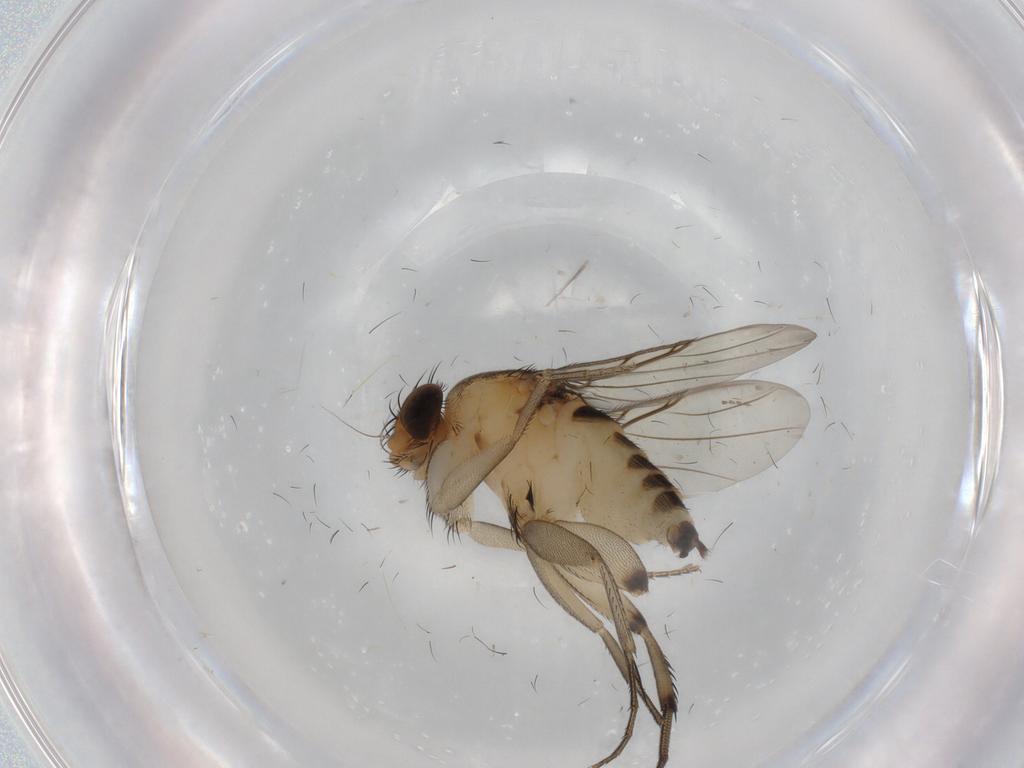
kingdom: Animalia
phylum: Arthropoda
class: Insecta
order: Diptera
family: Phoridae
